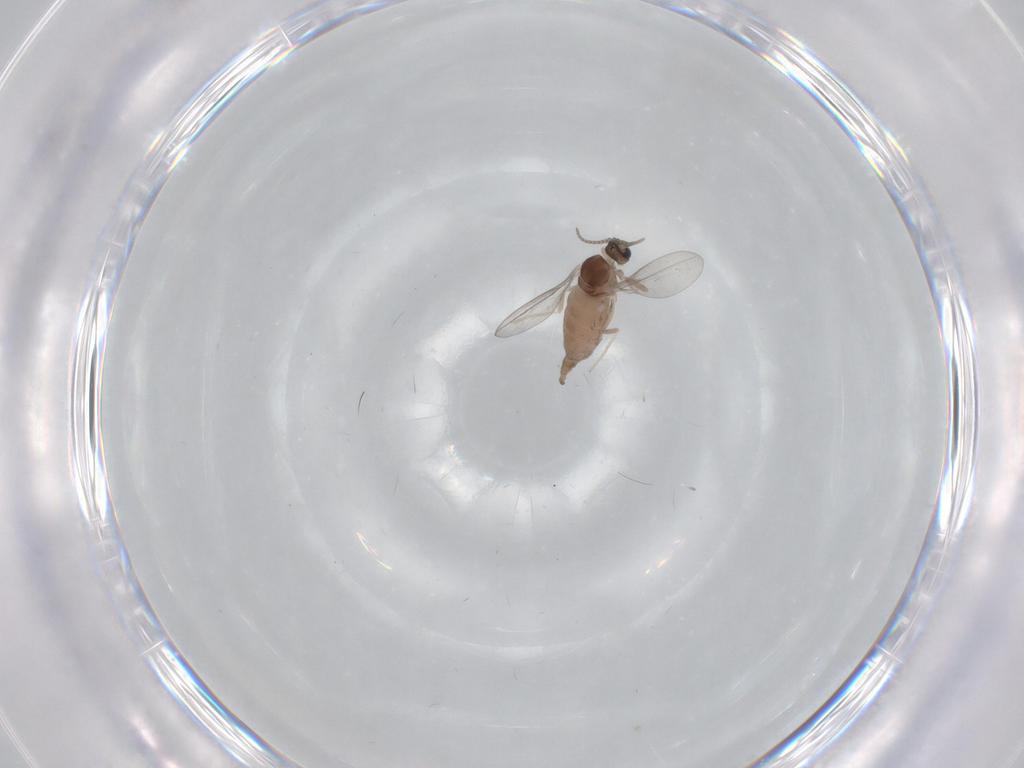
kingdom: Animalia
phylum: Arthropoda
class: Insecta
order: Diptera
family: Cecidomyiidae
